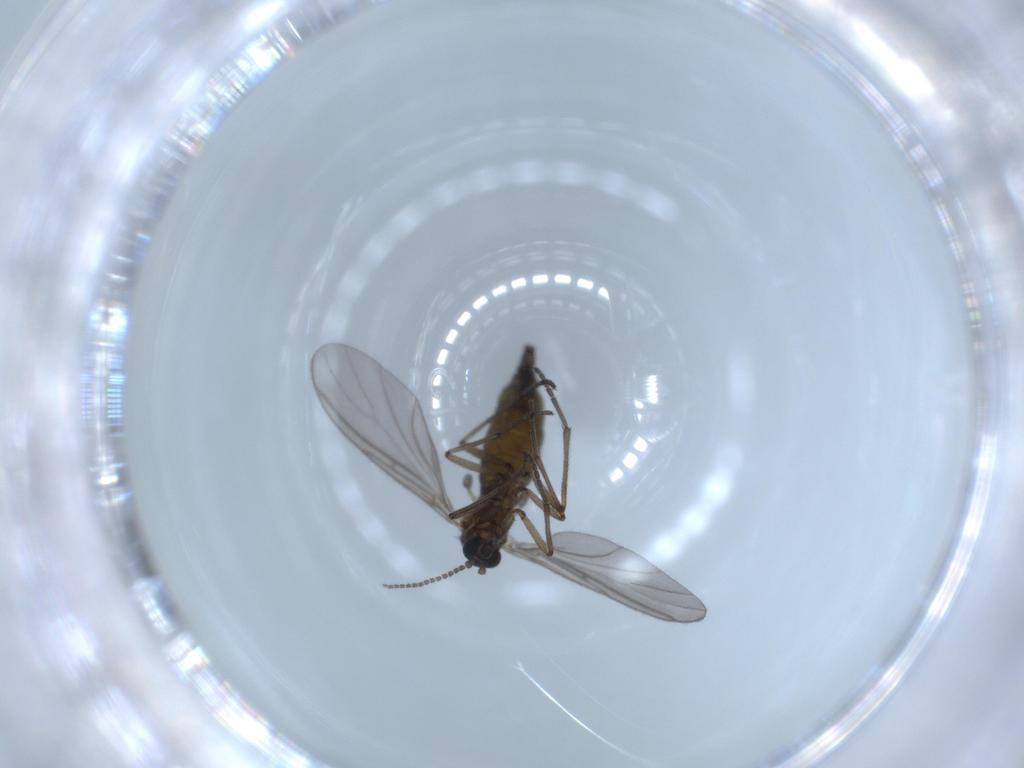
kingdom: Animalia
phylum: Arthropoda
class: Insecta
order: Diptera
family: Sciaridae
